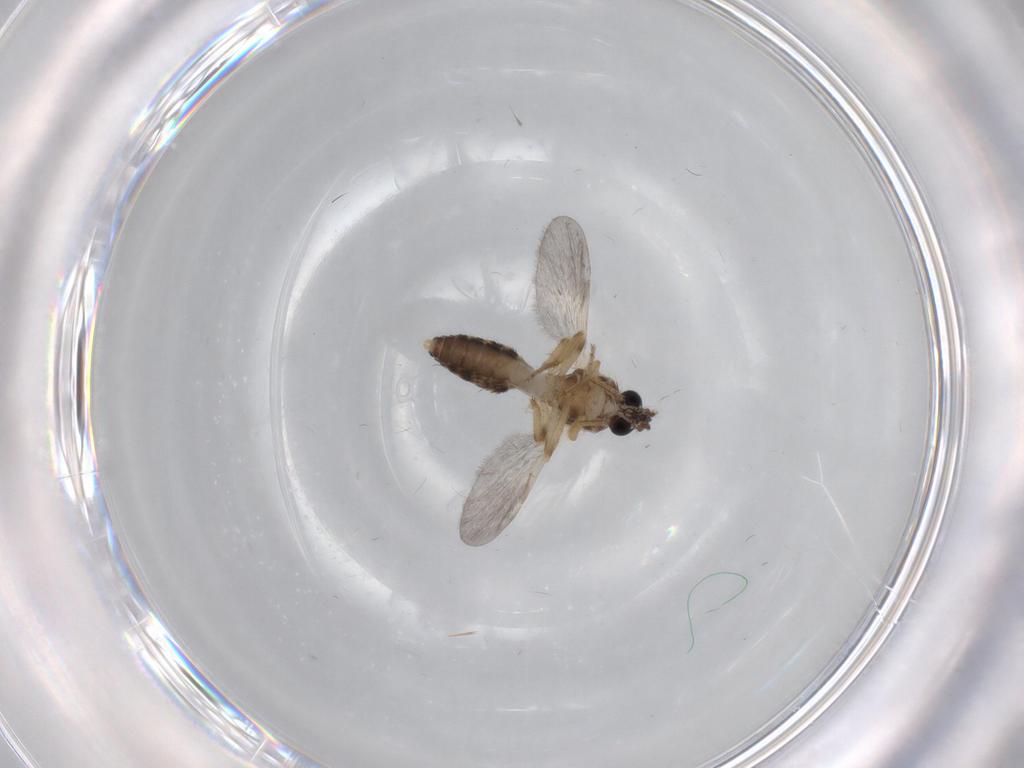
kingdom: Animalia
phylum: Arthropoda
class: Insecta
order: Diptera
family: Ceratopogonidae
